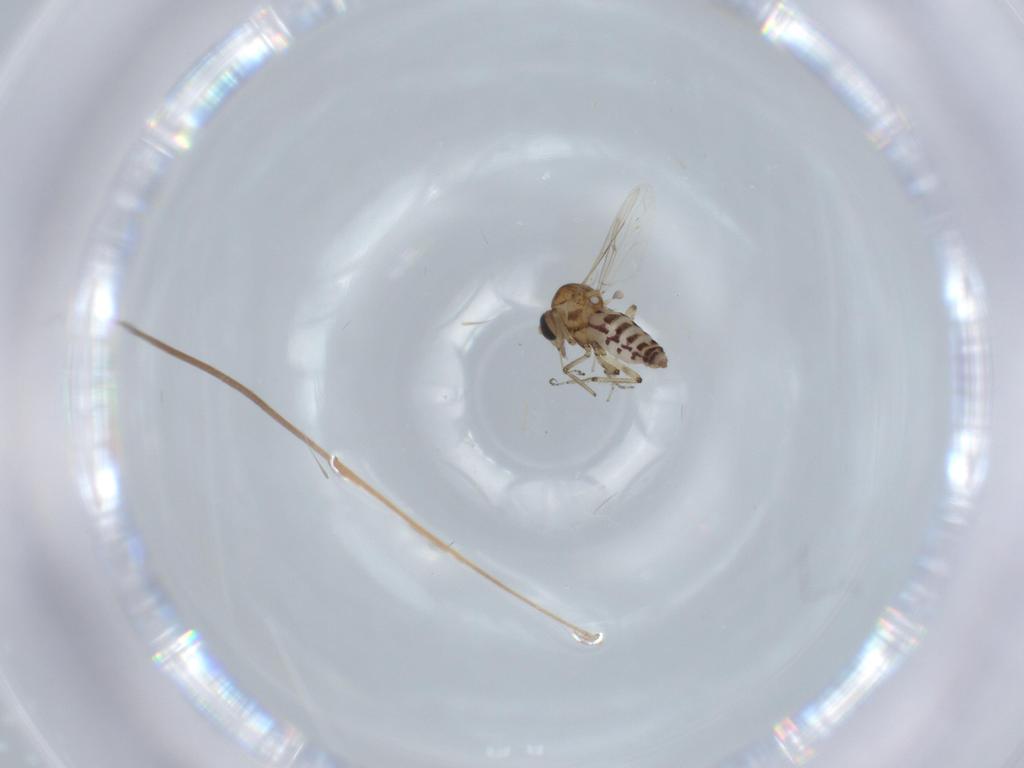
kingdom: Animalia
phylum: Arthropoda
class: Insecta
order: Diptera
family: Ceratopogonidae
